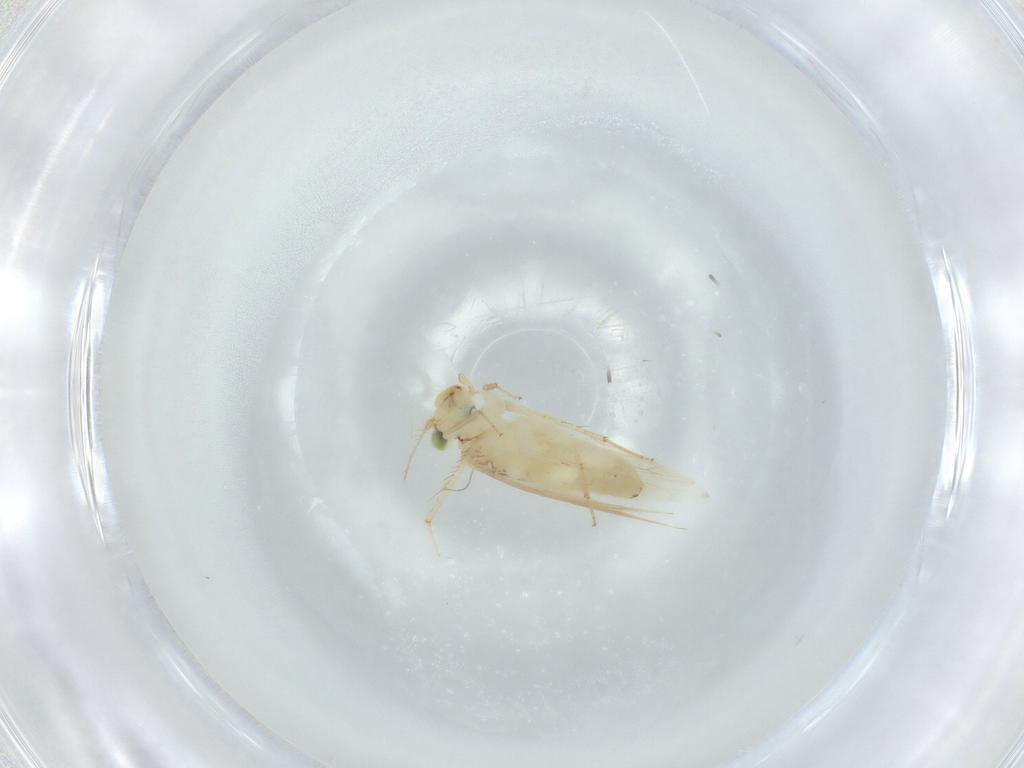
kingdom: Animalia
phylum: Arthropoda
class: Insecta
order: Psocodea
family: Lepidopsocidae
